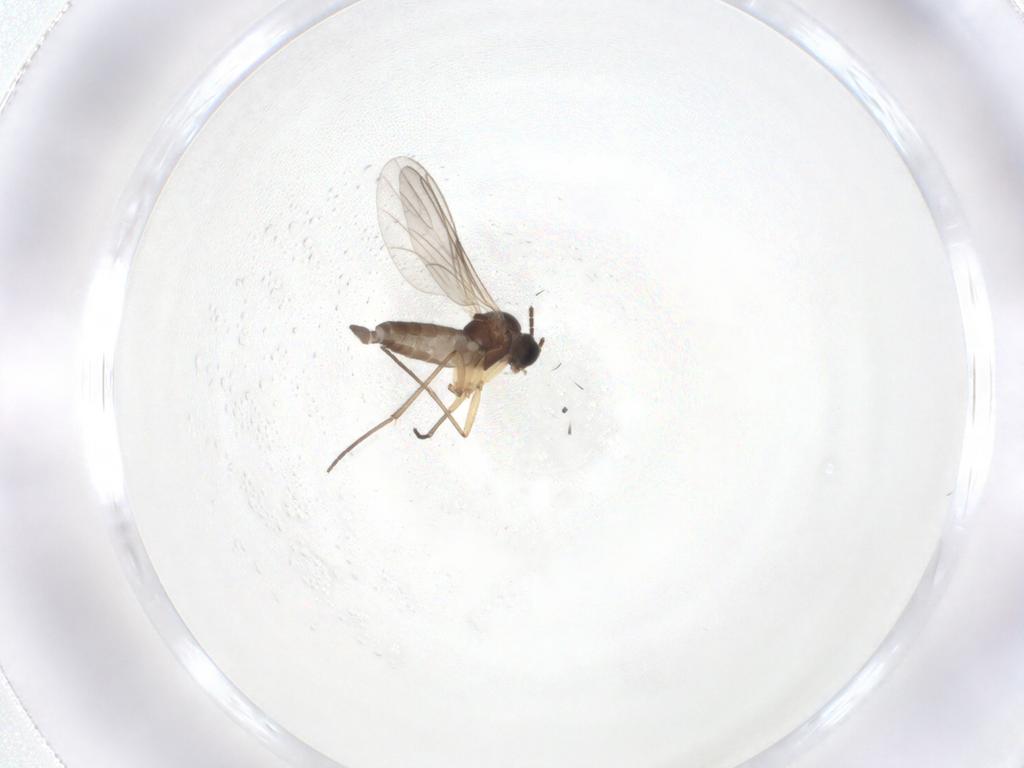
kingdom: Animalia
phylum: Arthropoda
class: Insecta
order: Diptera
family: Sciaridae
